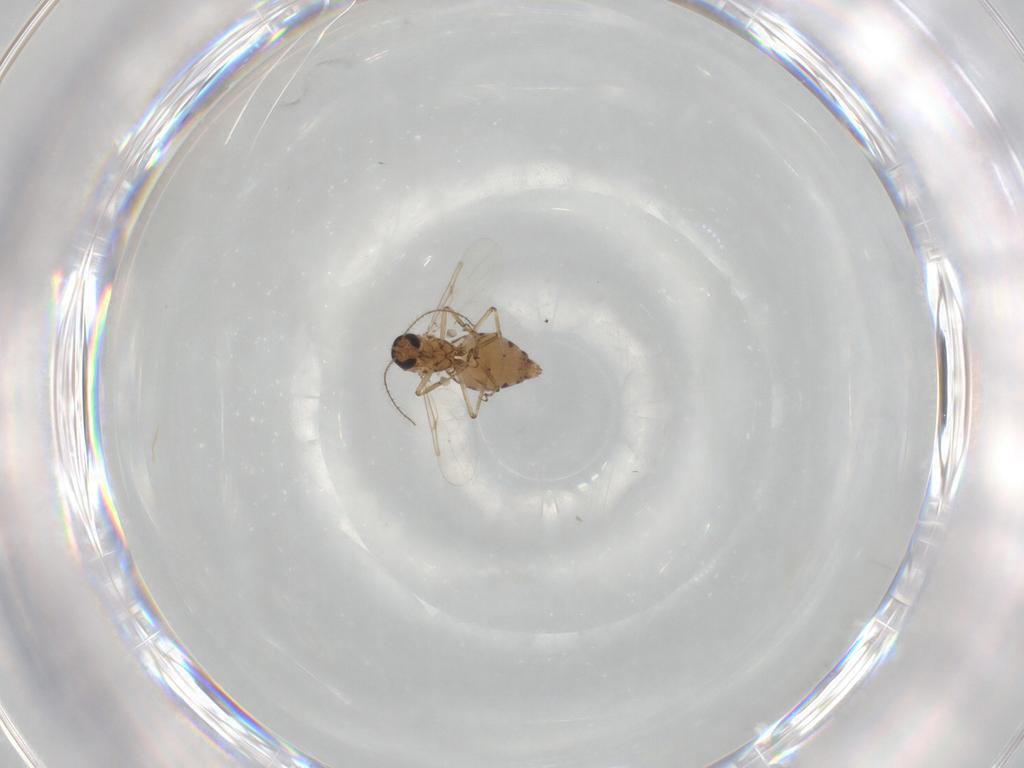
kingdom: Animalia
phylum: Arthropoda
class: Insecta
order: Diptera
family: Ceratopogonidae
